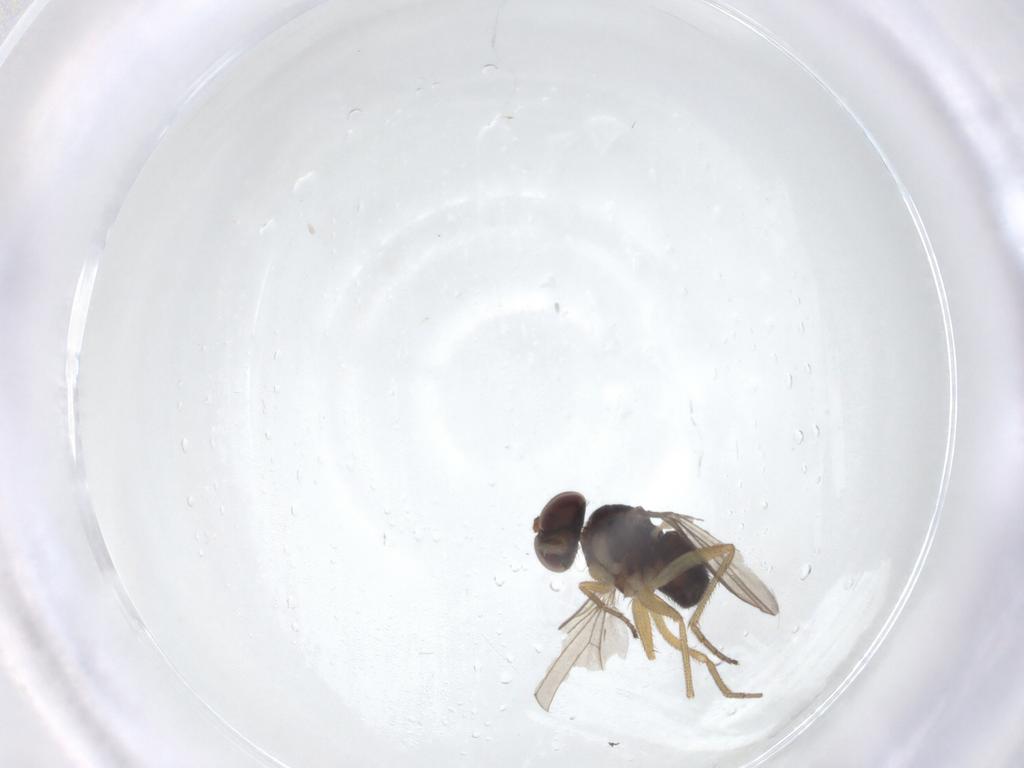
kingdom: Animalia
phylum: Arthropoda
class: Insecta
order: Diptera
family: Dolichopodidae
